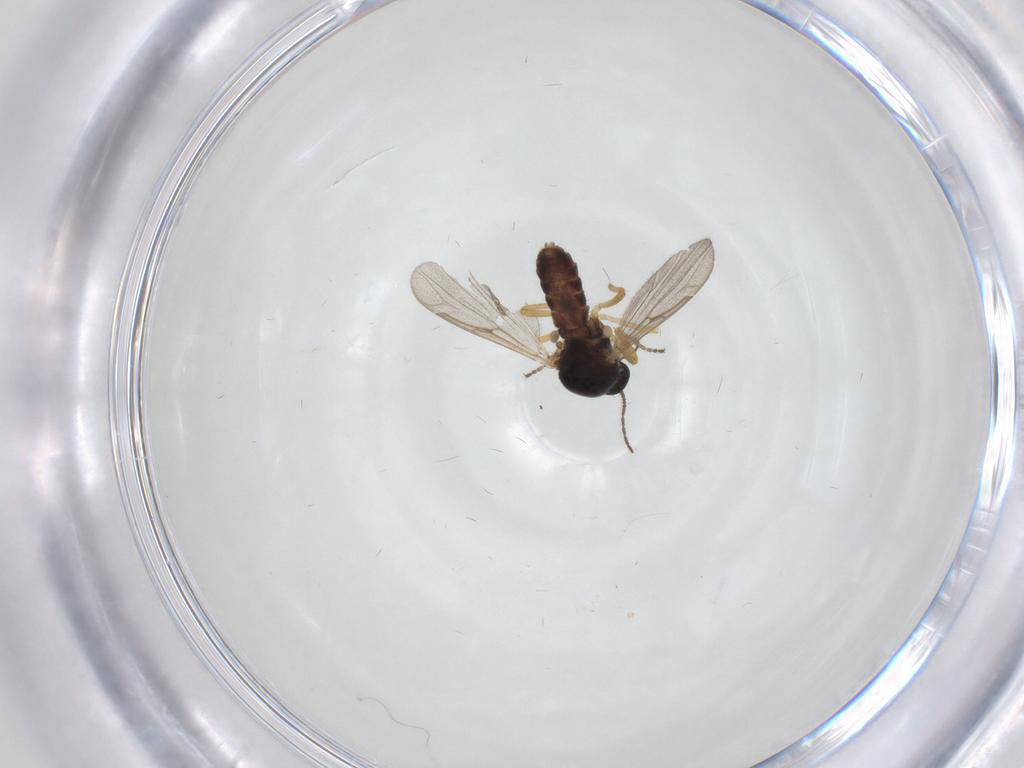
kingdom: Animalia
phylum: Arthropoda
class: Insecta
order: Diptera
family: Ceratopogonidae
